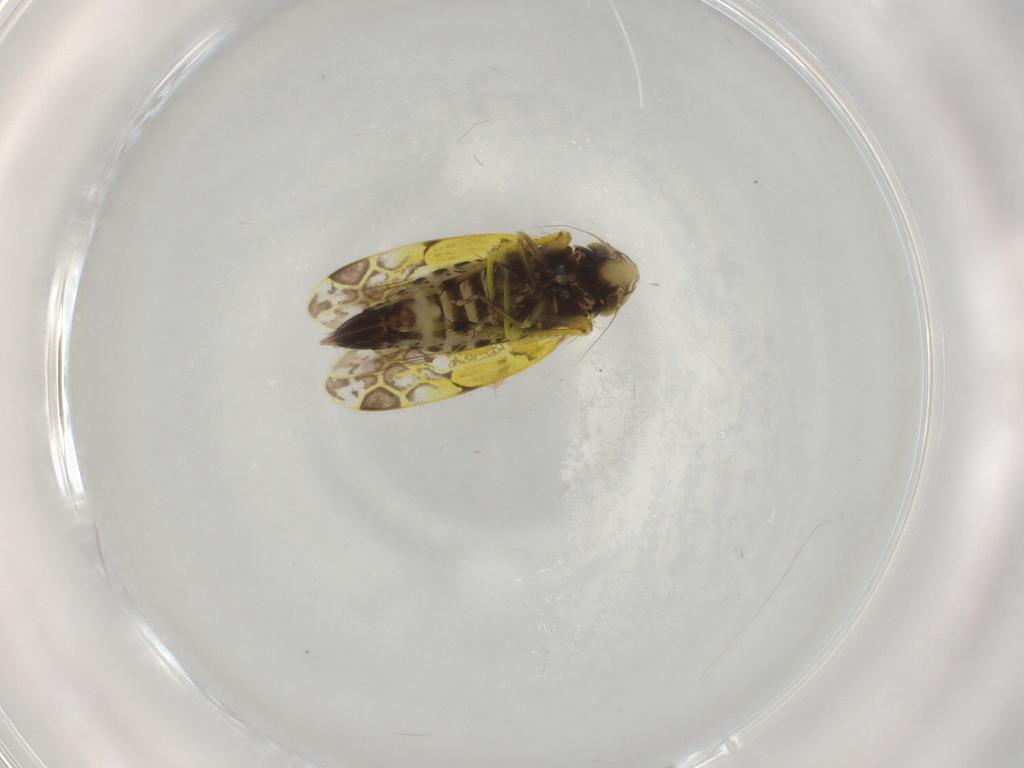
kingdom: Animalia
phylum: Arthropoda
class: Insecta
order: Hemiptera
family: Cicadellidae
